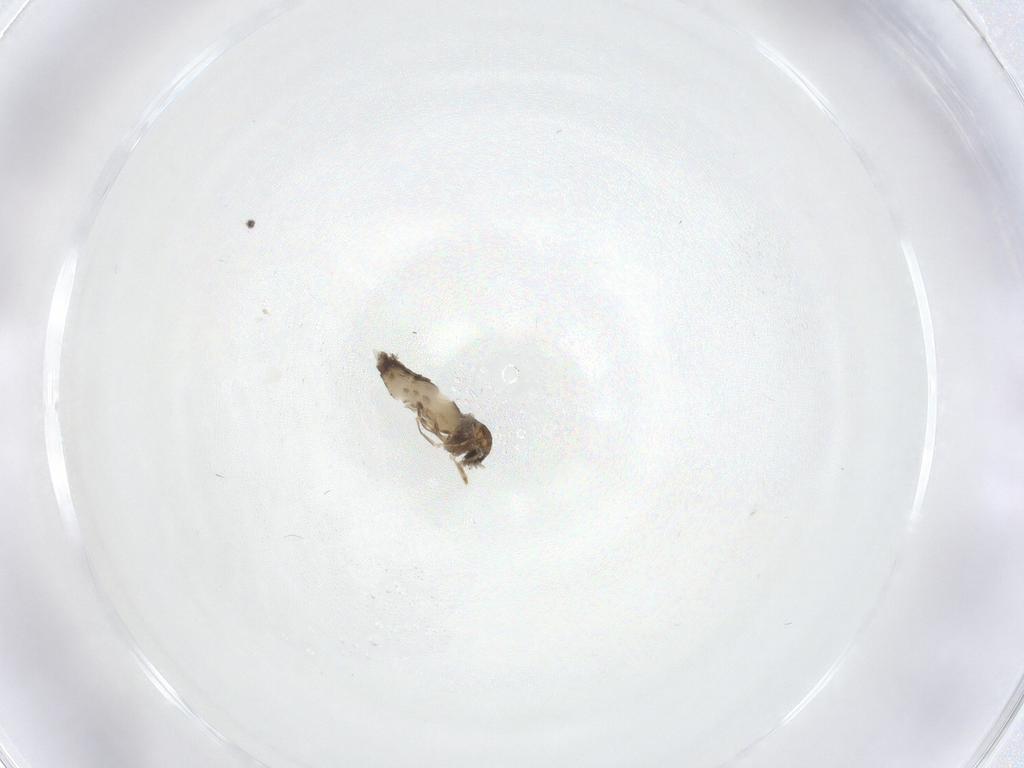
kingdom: Animalia
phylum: Arthropoda
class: Insecta
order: Diptera
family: Ceratopogonidae
